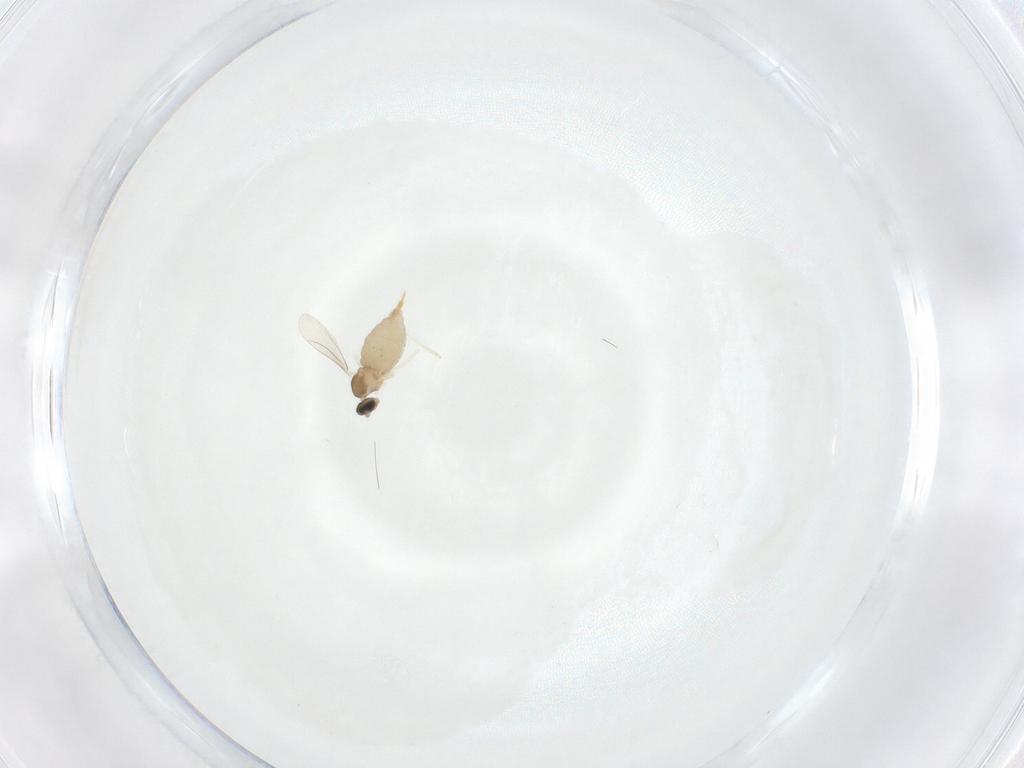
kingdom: Animalia
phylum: Arthropoda
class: Insecta
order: Diptera
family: Cecidomyiidae
